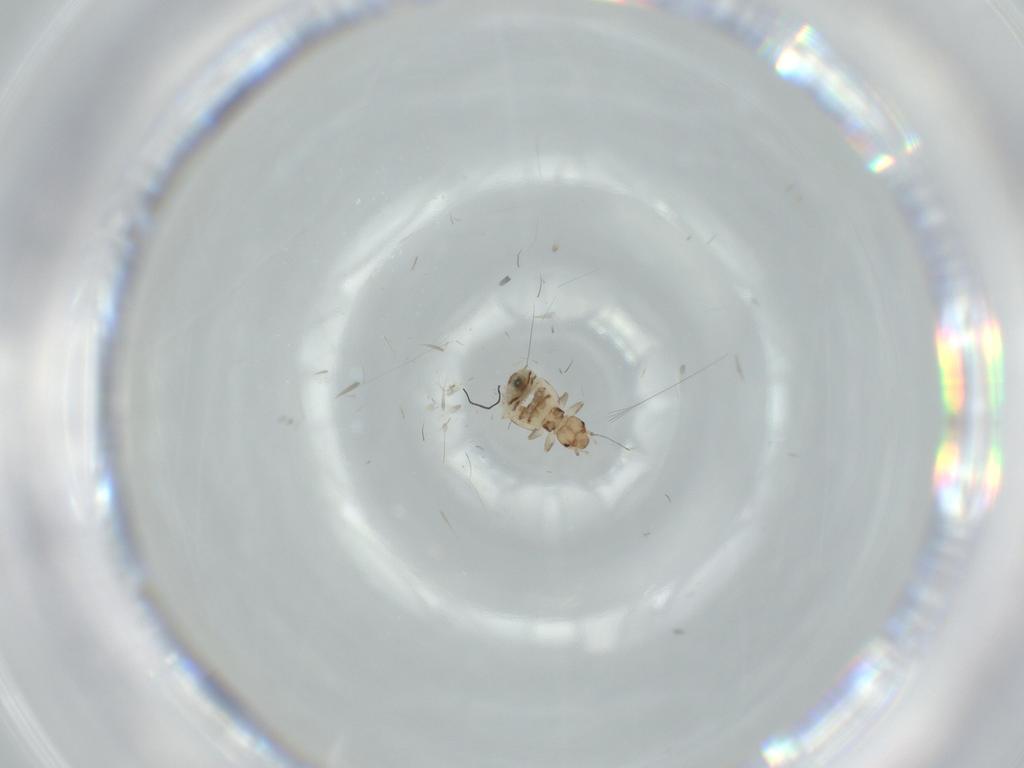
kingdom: Animalia
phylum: Arthropoda
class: Insecta
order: Psocodea
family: Liposcelididae
